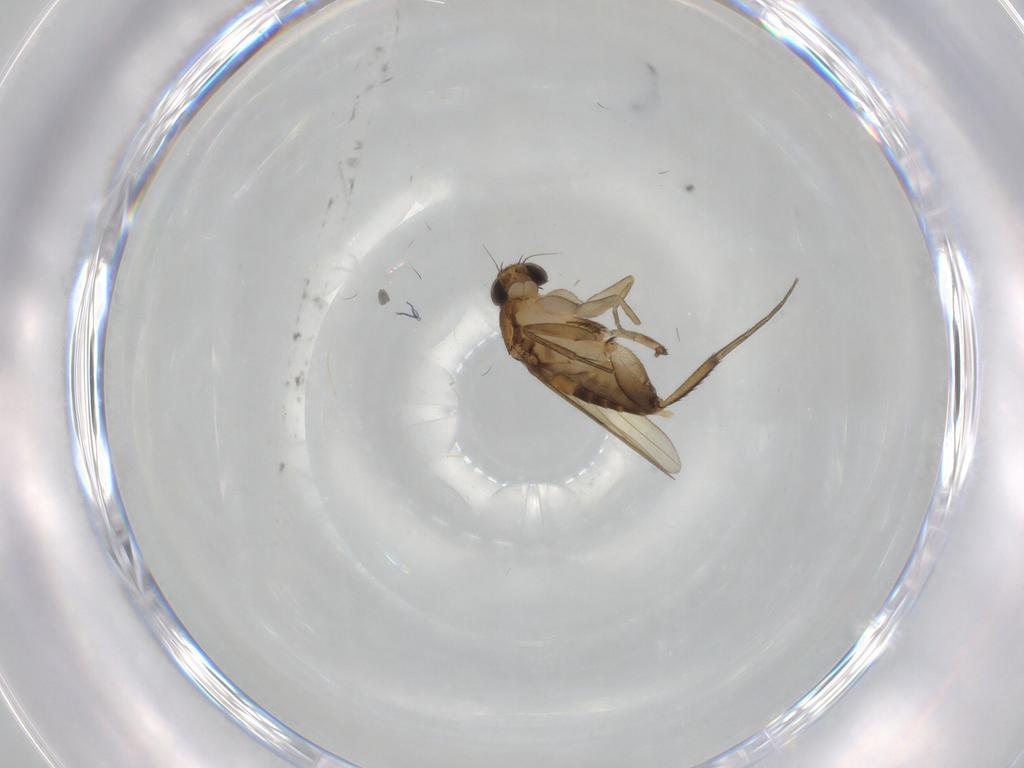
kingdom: Animalia
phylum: Arthropoda
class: Insecta
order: Diptera
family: Phoridae
